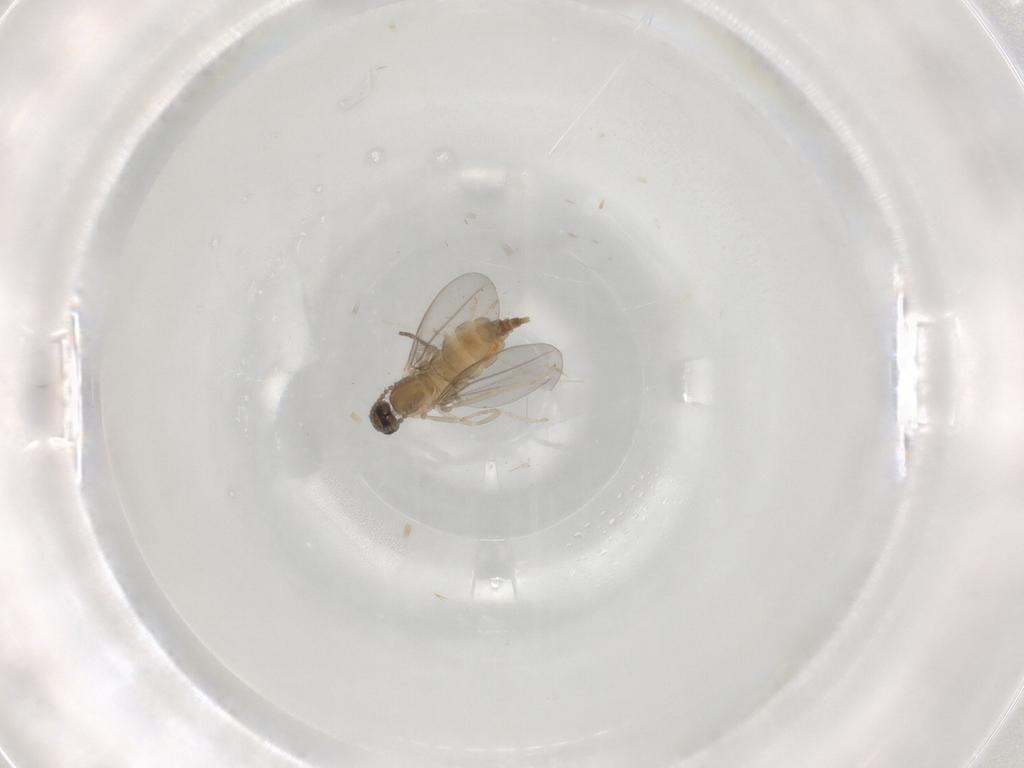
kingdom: Animalia
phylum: Arthropoda
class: Insecta
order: Diptera
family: Cecidomyiidae
